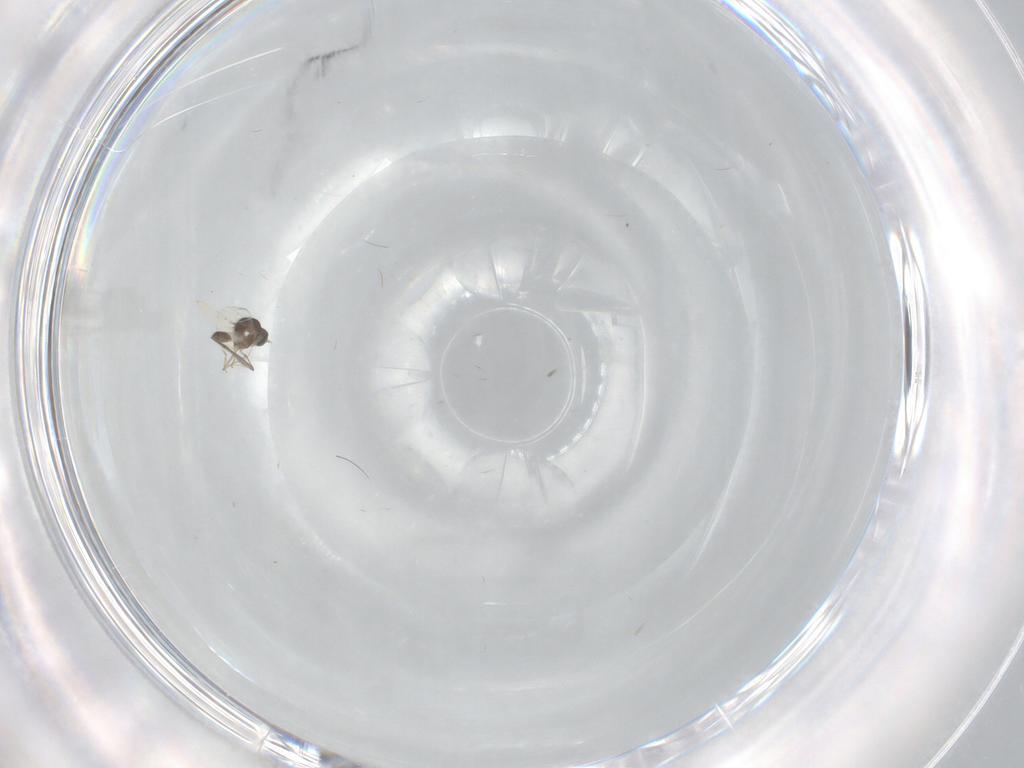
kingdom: Animalia
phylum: Arthropoda
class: Insecta
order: Diptera
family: Ceratopogonidae
